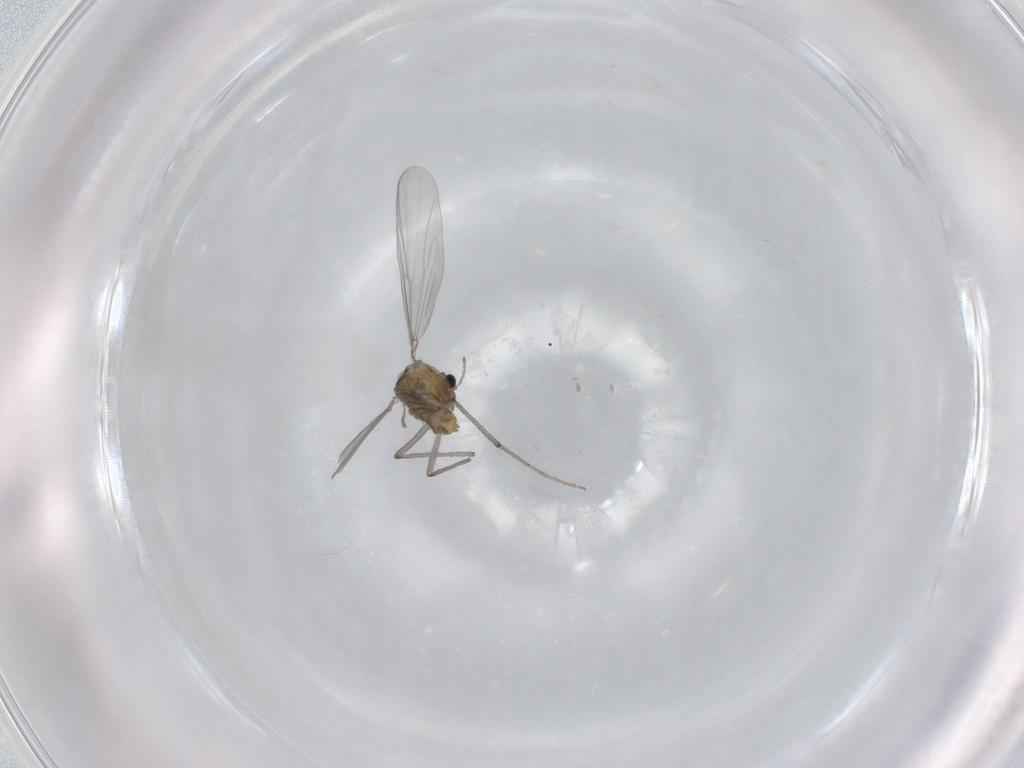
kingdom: Animalia
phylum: Arthropoda
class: Insecta
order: Diptera
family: Chironomidae
